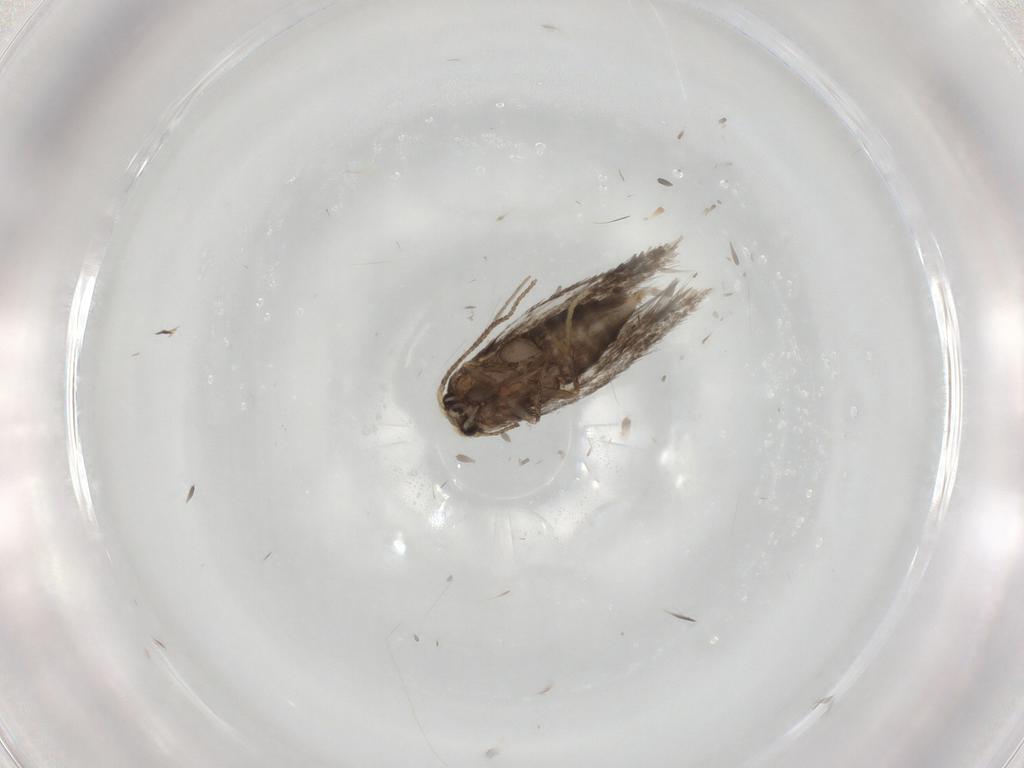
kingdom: Animalia
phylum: Arthropoda
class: Insecta
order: Lepidoptera
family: Nepticulidae
